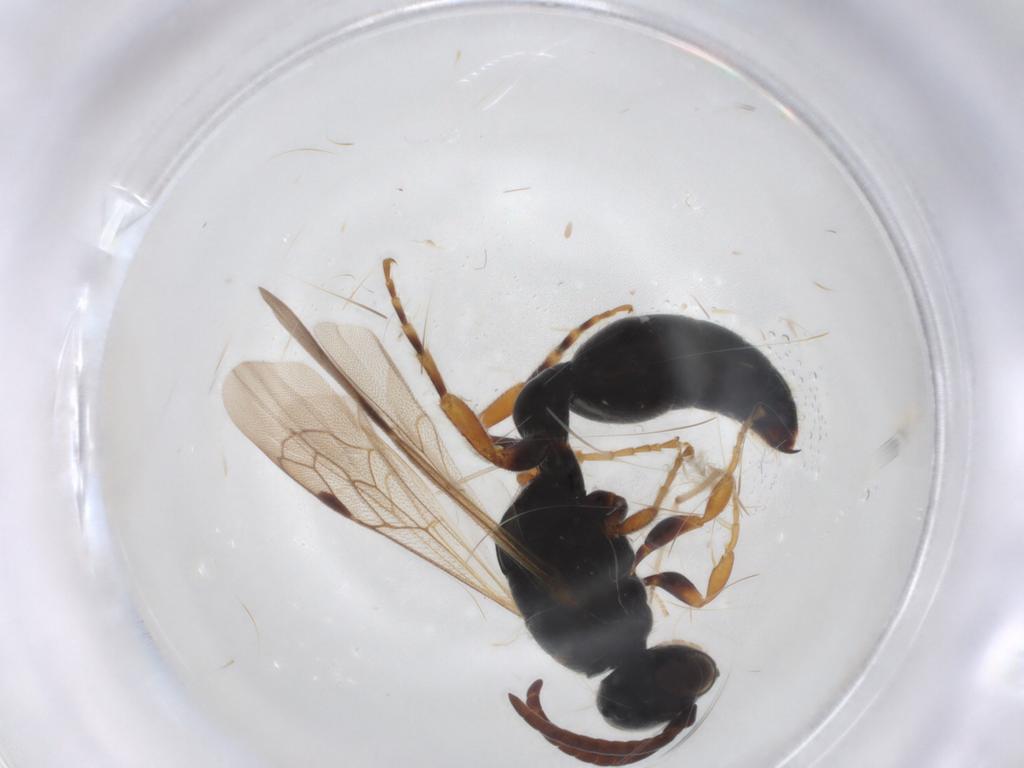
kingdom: Animalia
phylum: Arthropoda
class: Insecta
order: Hymenoptera
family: Tiphiidae
